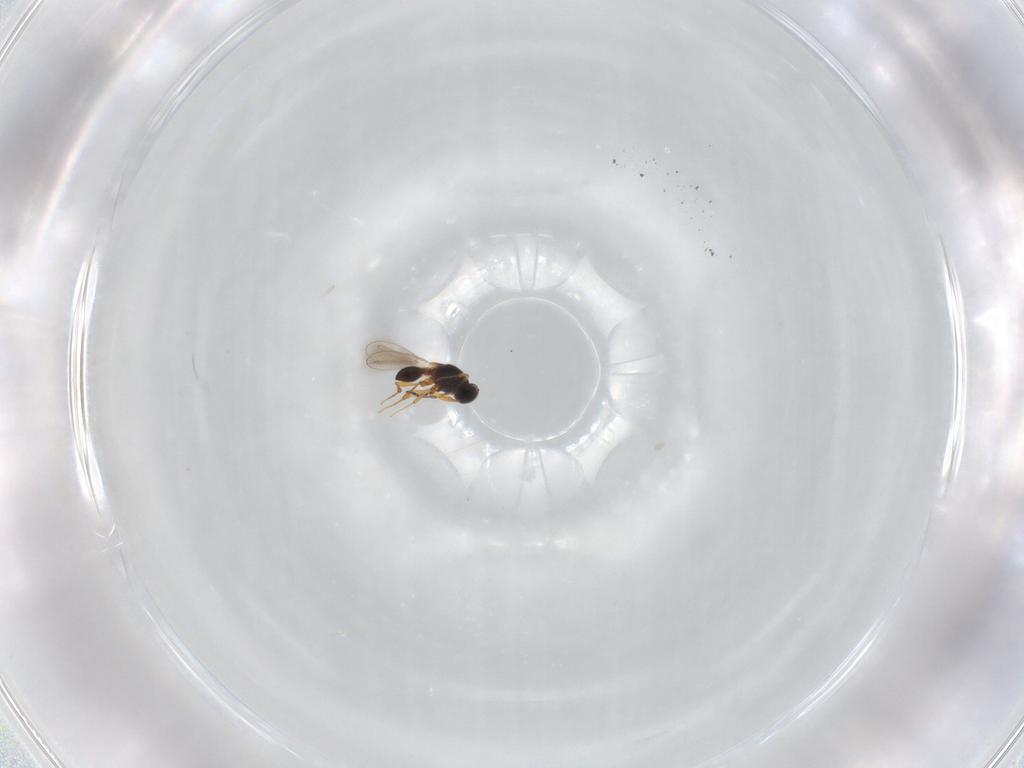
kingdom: Animalia
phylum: Arthropoda
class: Insecta
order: Hymenoptera
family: Platygastridae
